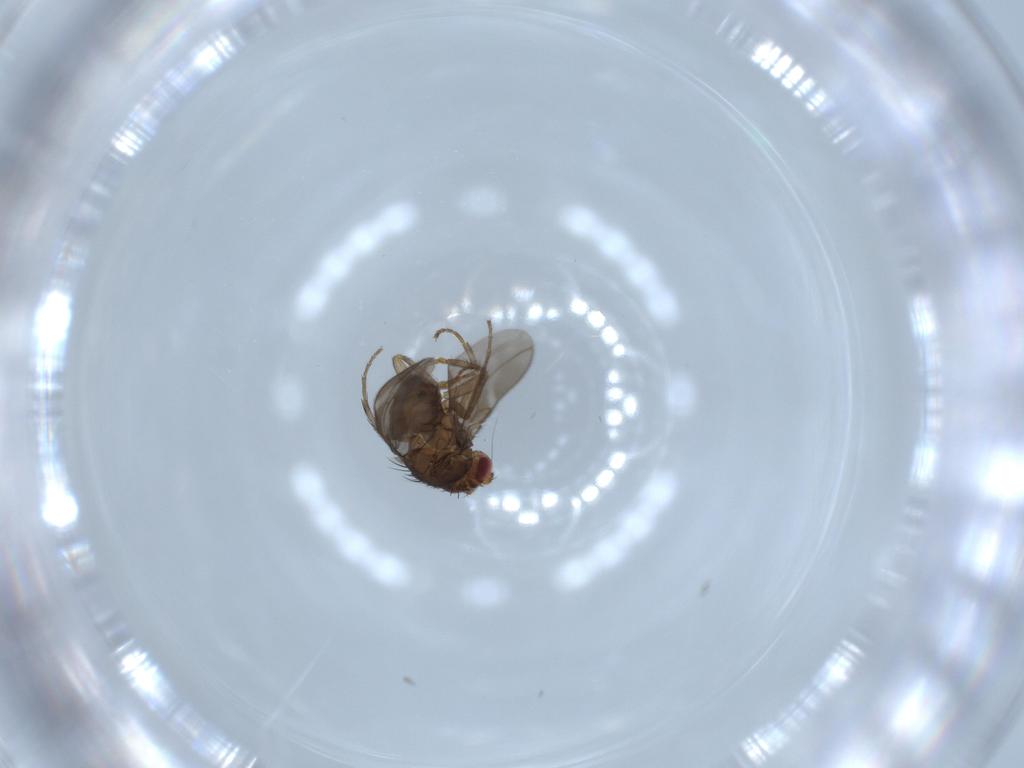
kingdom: Animalia
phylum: Arthropoda
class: Insecta
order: Diptera
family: Sphaeroceridae
